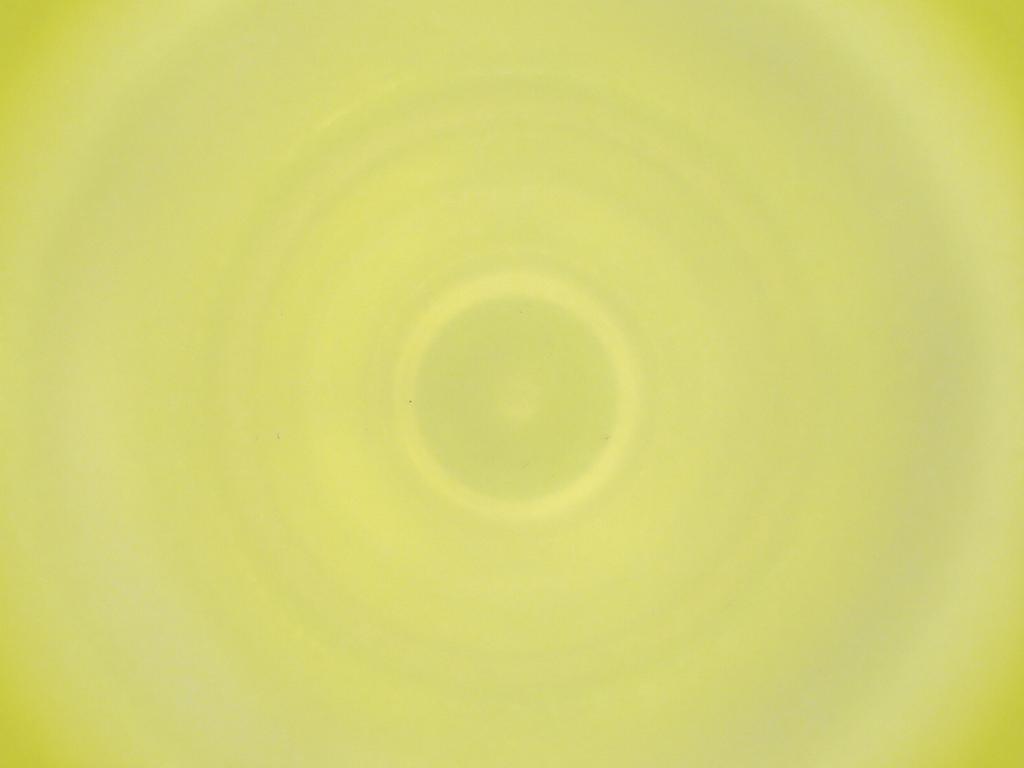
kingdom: Animalia
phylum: Arthropoda
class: Insecta
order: Diptera
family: Cecidomyiidae
